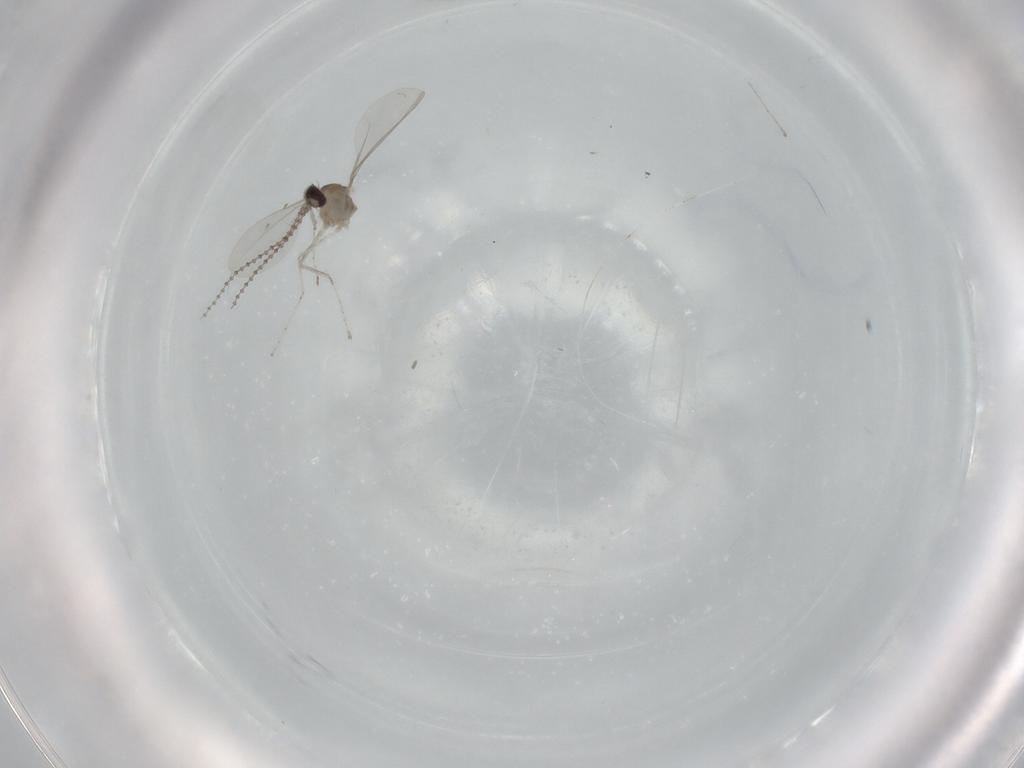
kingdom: Animalia
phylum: Arthropoda
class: Insecta
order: Diptera
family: Cecidomyiidae
